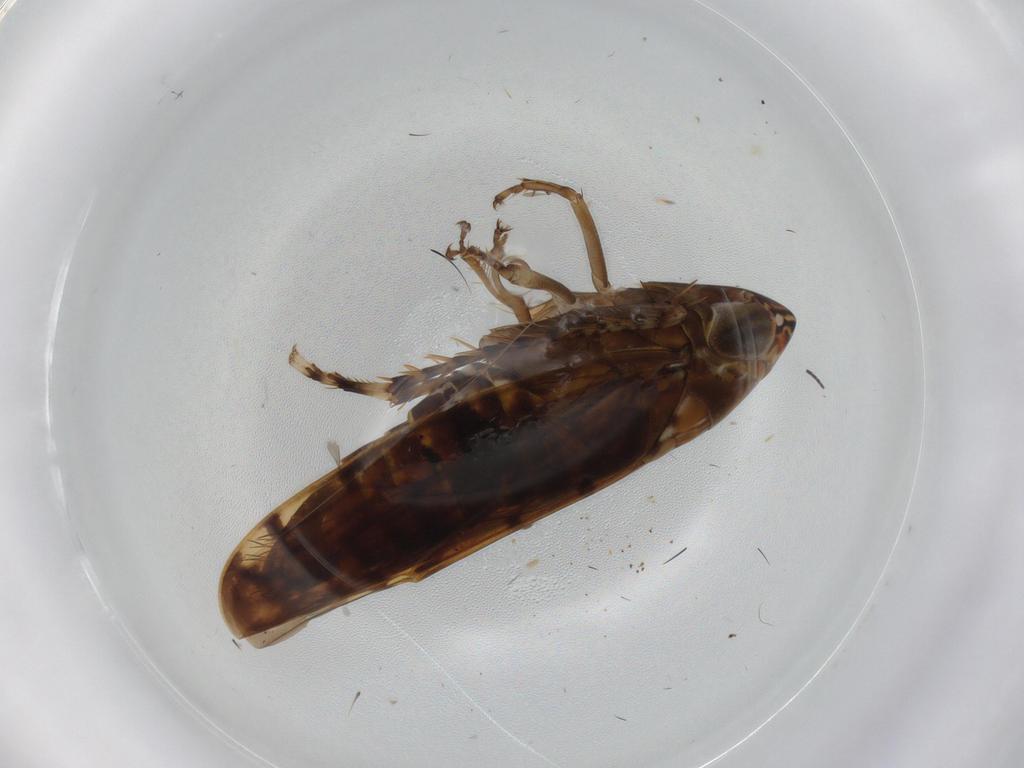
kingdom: Animalia
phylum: Arthropoda
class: Insecta
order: Hemiptera
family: Cicadellidae
